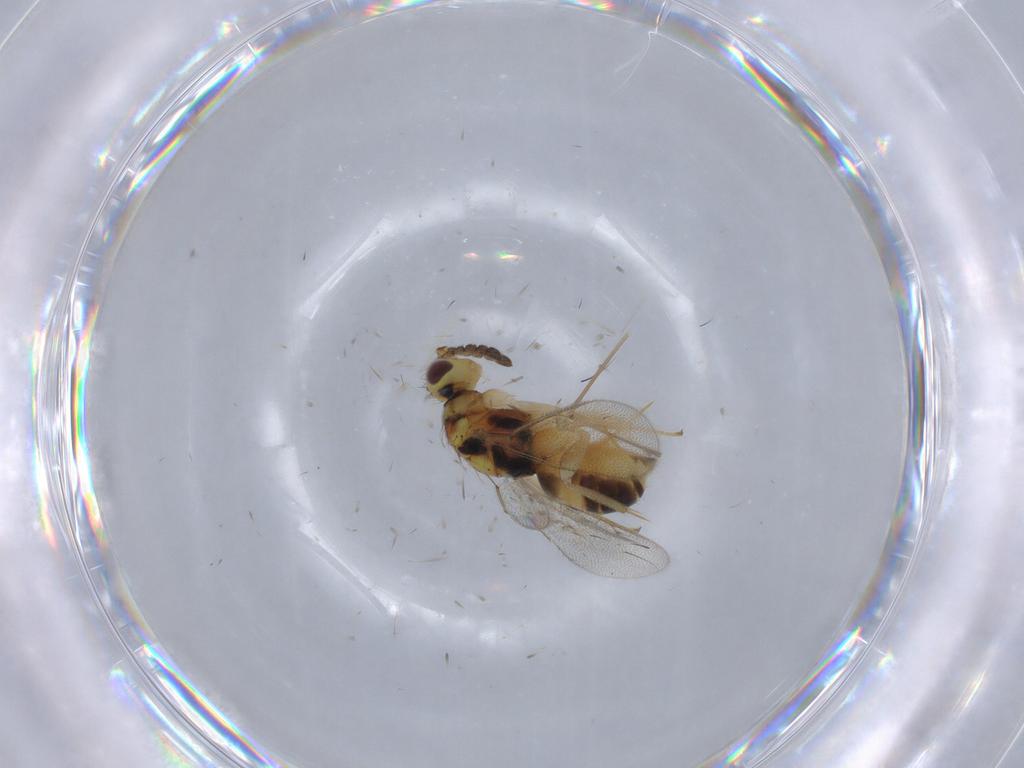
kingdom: Animalia
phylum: Arthropoda
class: Insecta
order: Hymenoptera
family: Eulophidae
